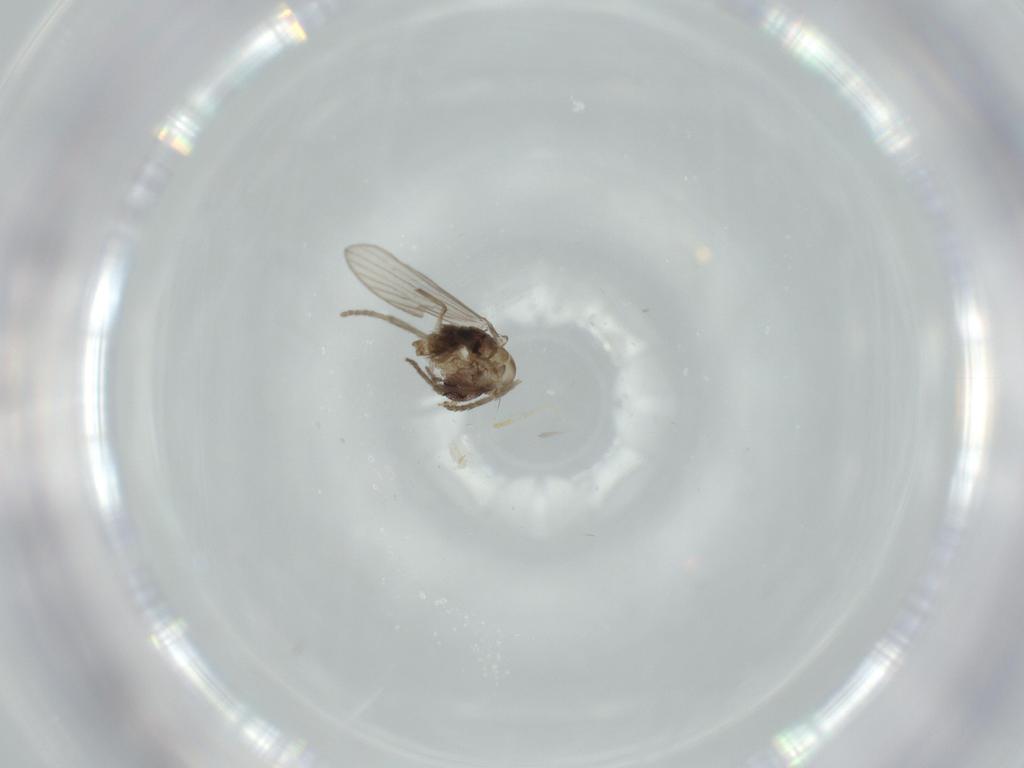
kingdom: Animalia
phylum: Arthropoda
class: Insecta
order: Diptera
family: Psychodidae
